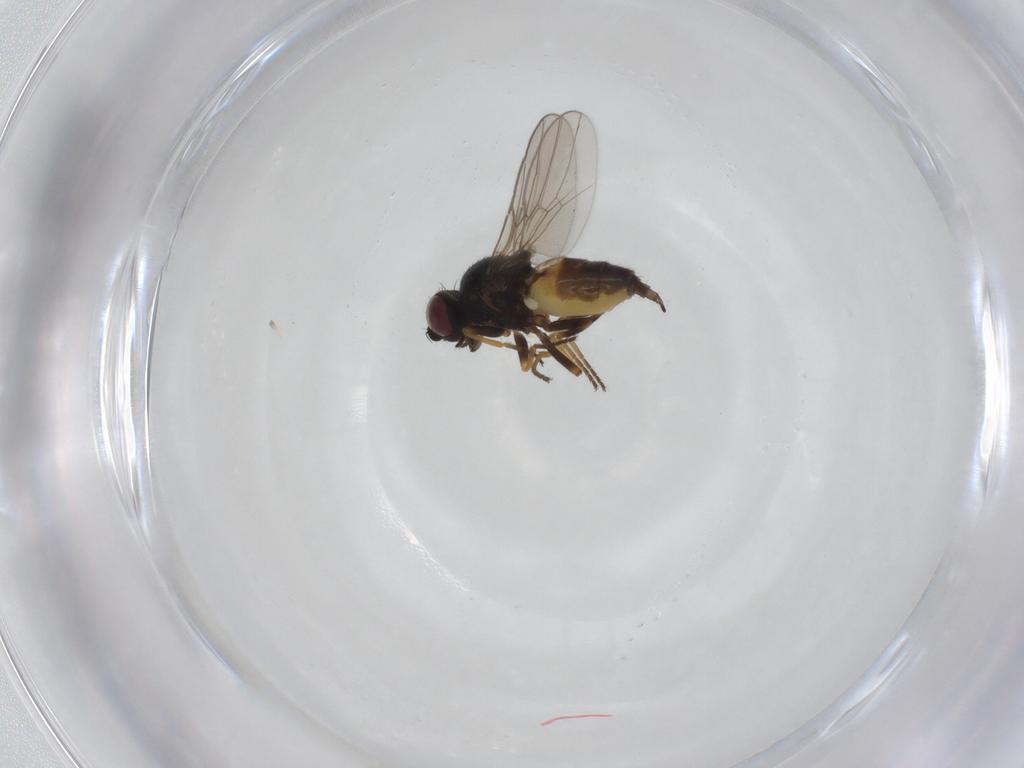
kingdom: Animalia
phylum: Arthropoda
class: Insecta
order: Diptera
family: Chloropidae
